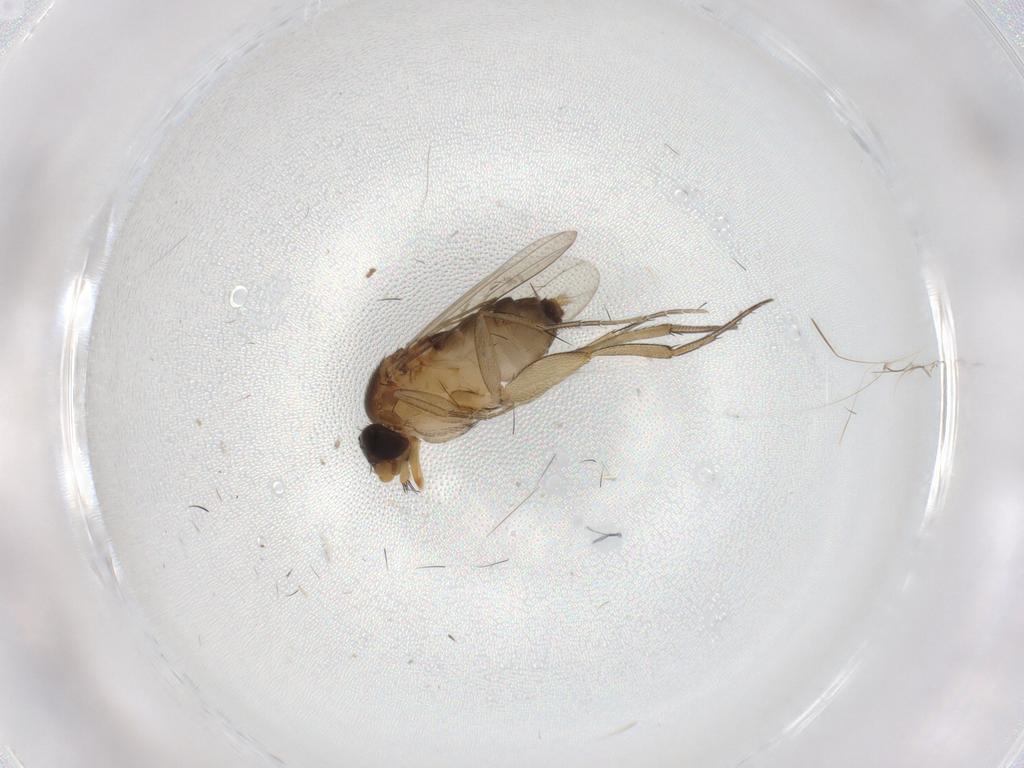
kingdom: Animalia
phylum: Arthropoda
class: Insecta
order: Diptera
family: Phoridae
